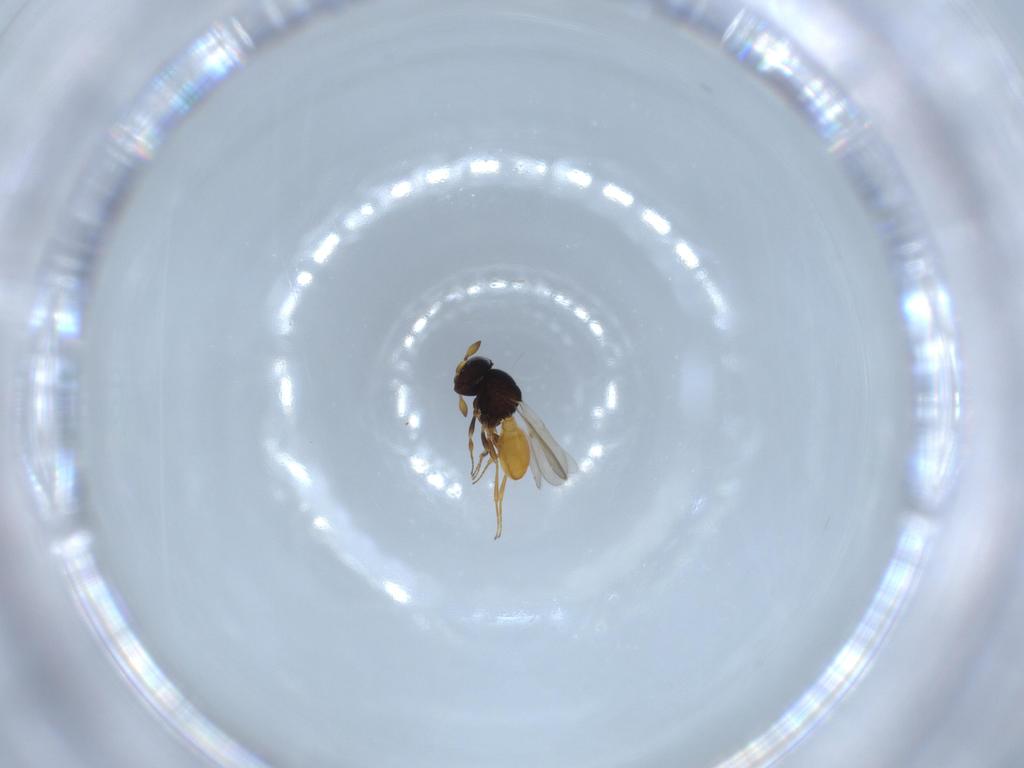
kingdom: Animalia
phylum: Arthropoda
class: Insecta
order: Hymenoptera
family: Scelionidae
